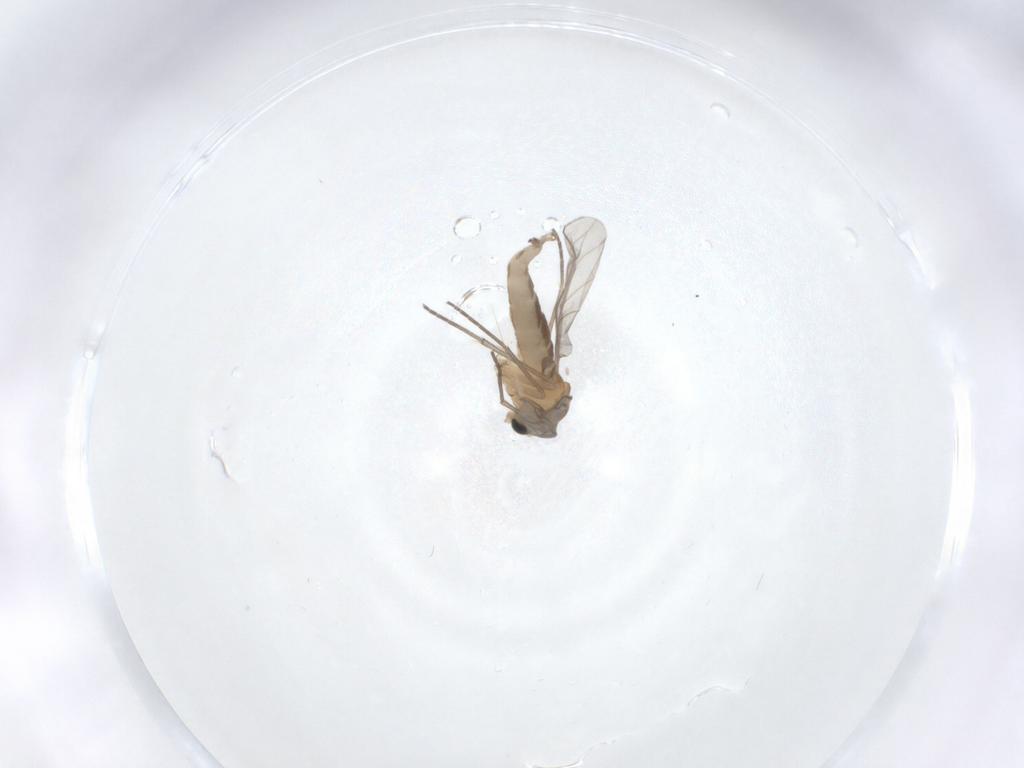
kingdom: Animalia
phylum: Arthropoda
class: Insecta
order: Diptera
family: Sciaridae
